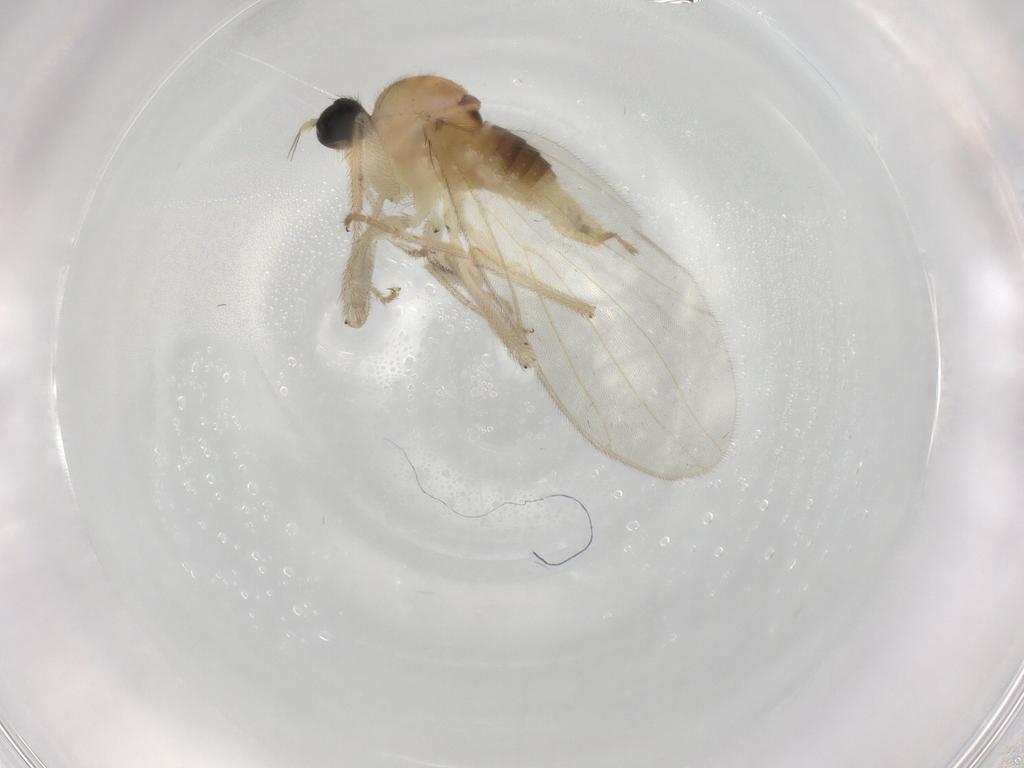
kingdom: Animalia
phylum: Arthropoda
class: Insecta
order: Diptera
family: Hybotidae
